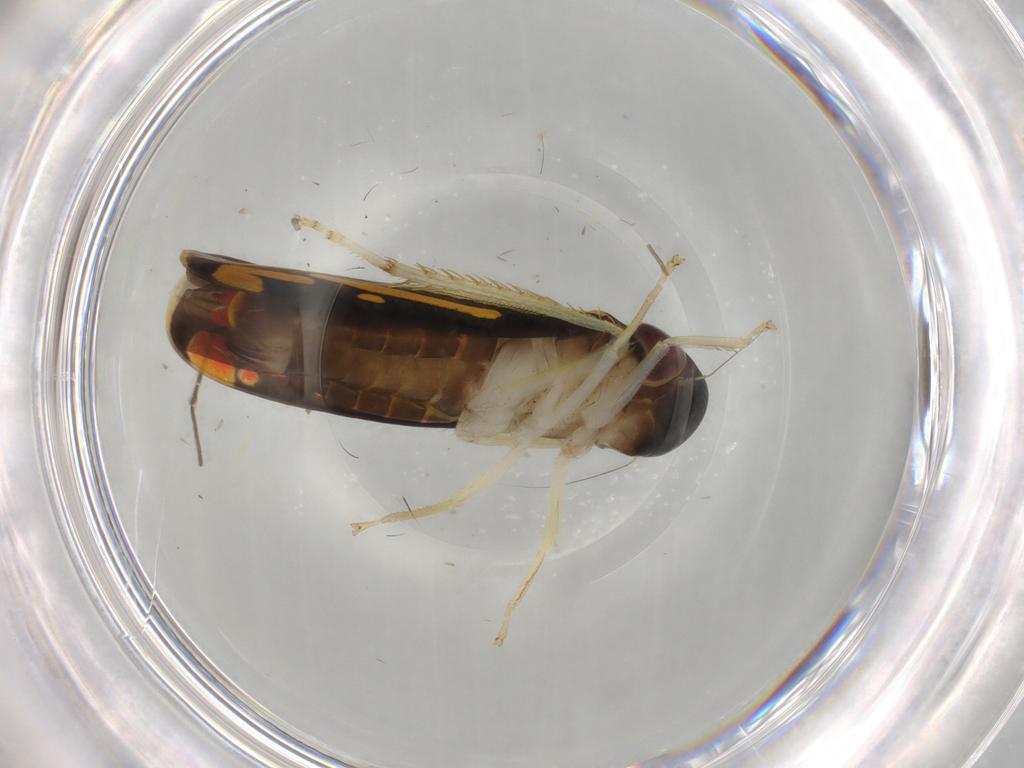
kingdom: Animalia
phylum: Arthropoda
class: Insecta
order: Hemiptera
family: Cicadellidae
